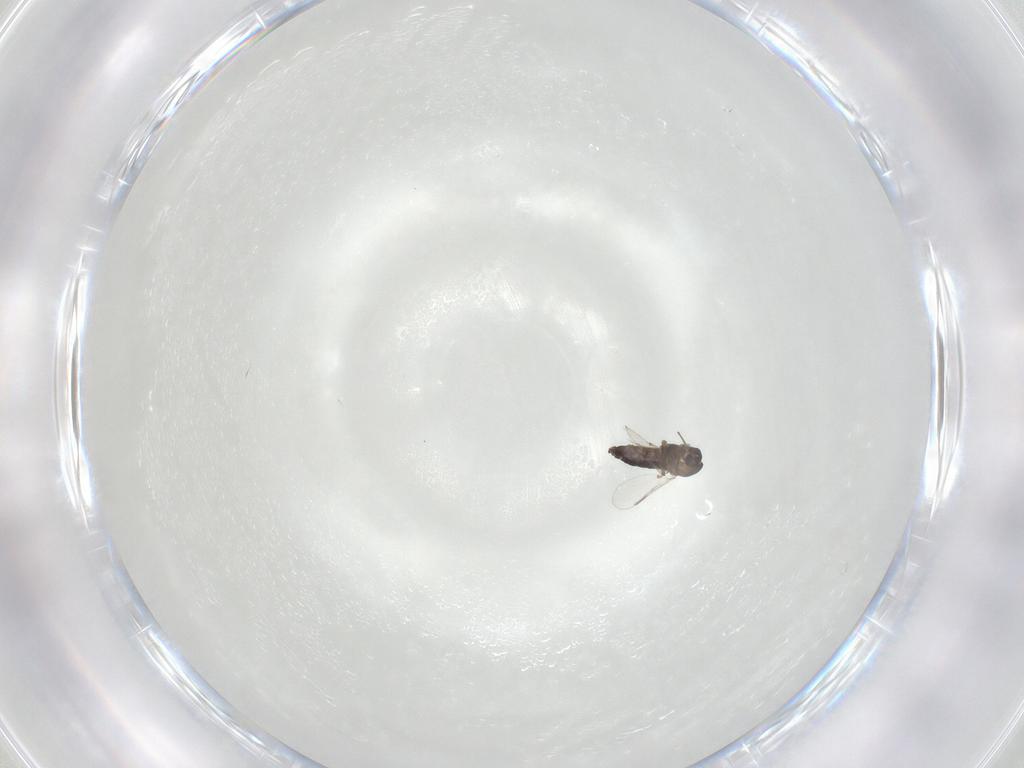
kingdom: Animalia
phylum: Arthropoda
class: Insecta
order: Diptera
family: Chironomidae
